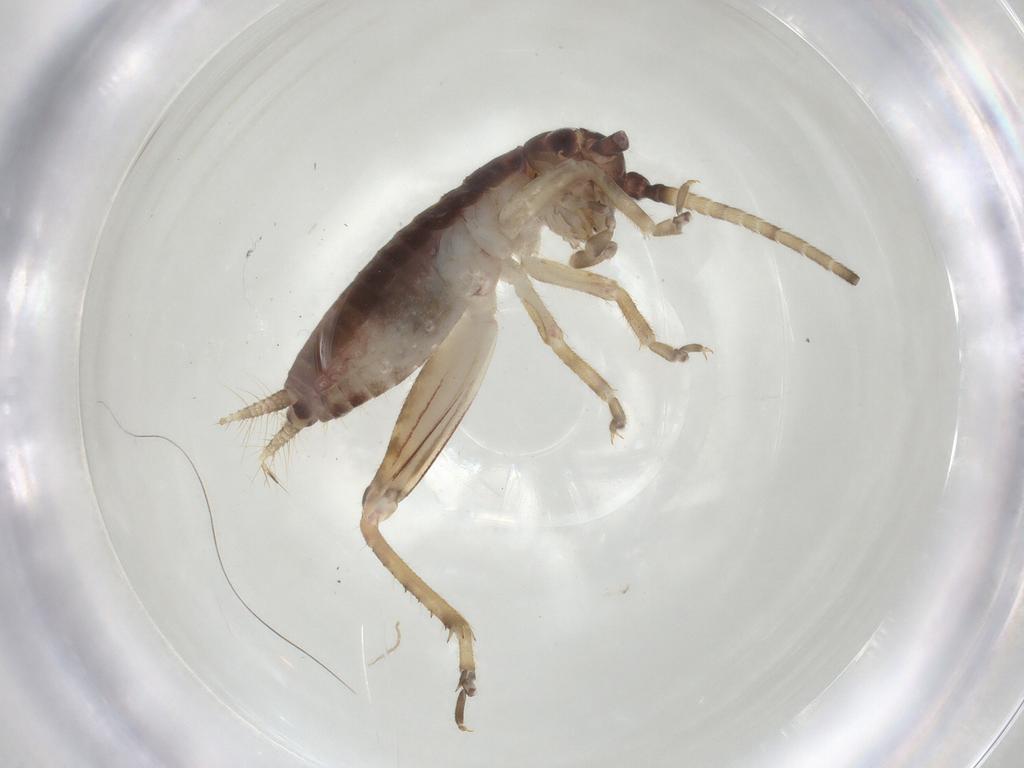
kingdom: Animalia
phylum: Arthropoda
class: Insecta
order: Orthoptera
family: Gryllidae
